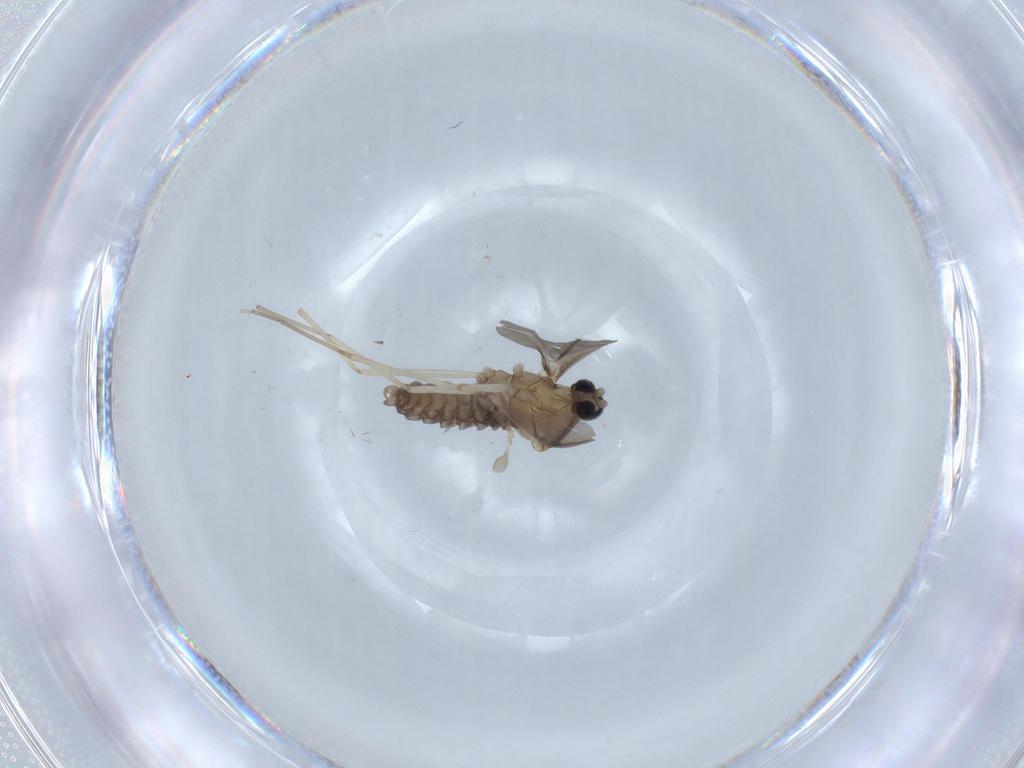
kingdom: Animalia
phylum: Arthropoda
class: Insecta
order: Diptera
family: Cecidomyiidae
